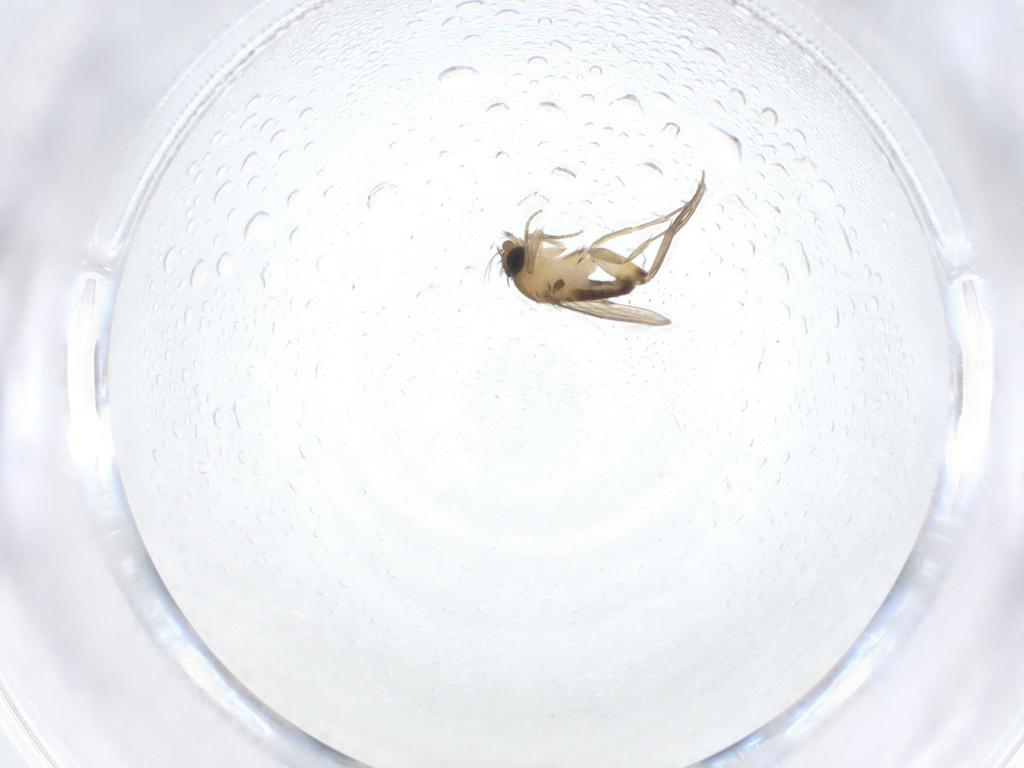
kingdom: Animalia
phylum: Arthropoda
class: Insecta
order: Diptera
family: Phoridae
